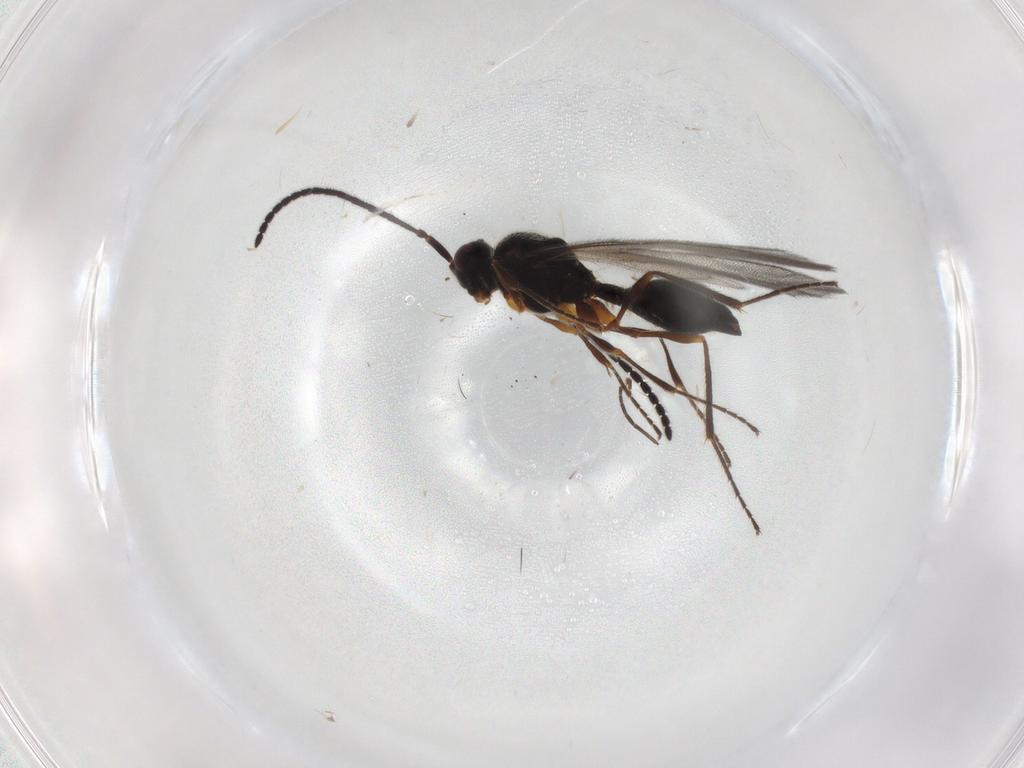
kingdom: Animalia
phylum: Arthropoda
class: Insecta
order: Hymenoptera
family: Diapriidae
